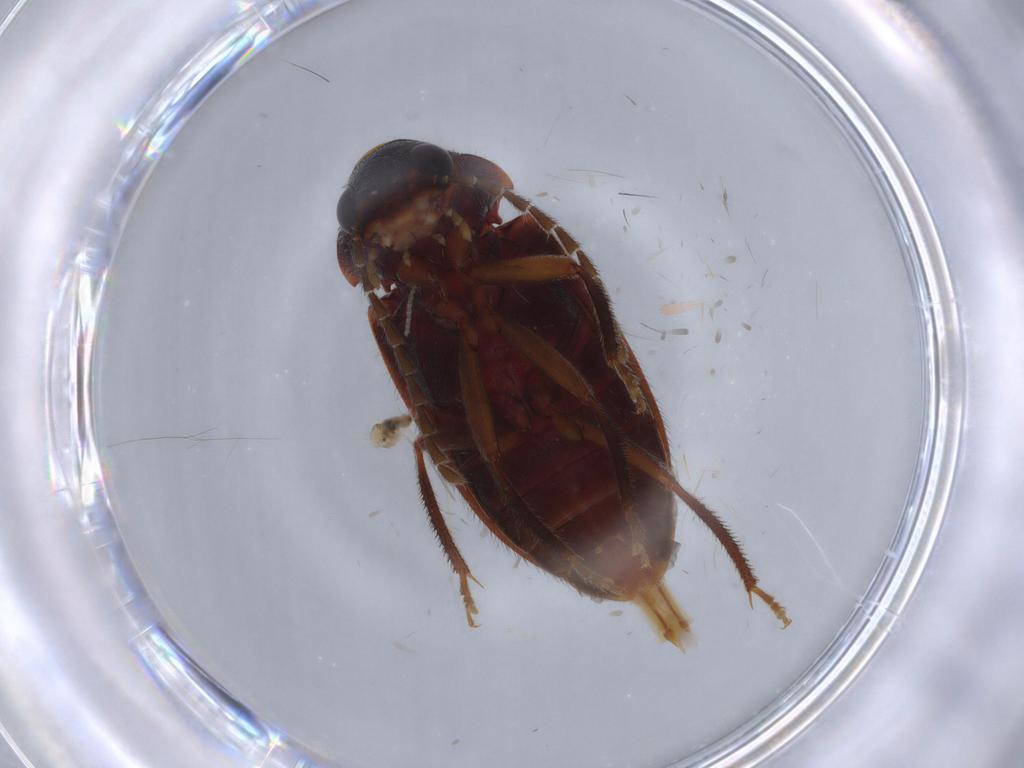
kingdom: Animalia
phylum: Arthropoda
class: Insecta
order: Coleoptera
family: Ptilodactylidae
